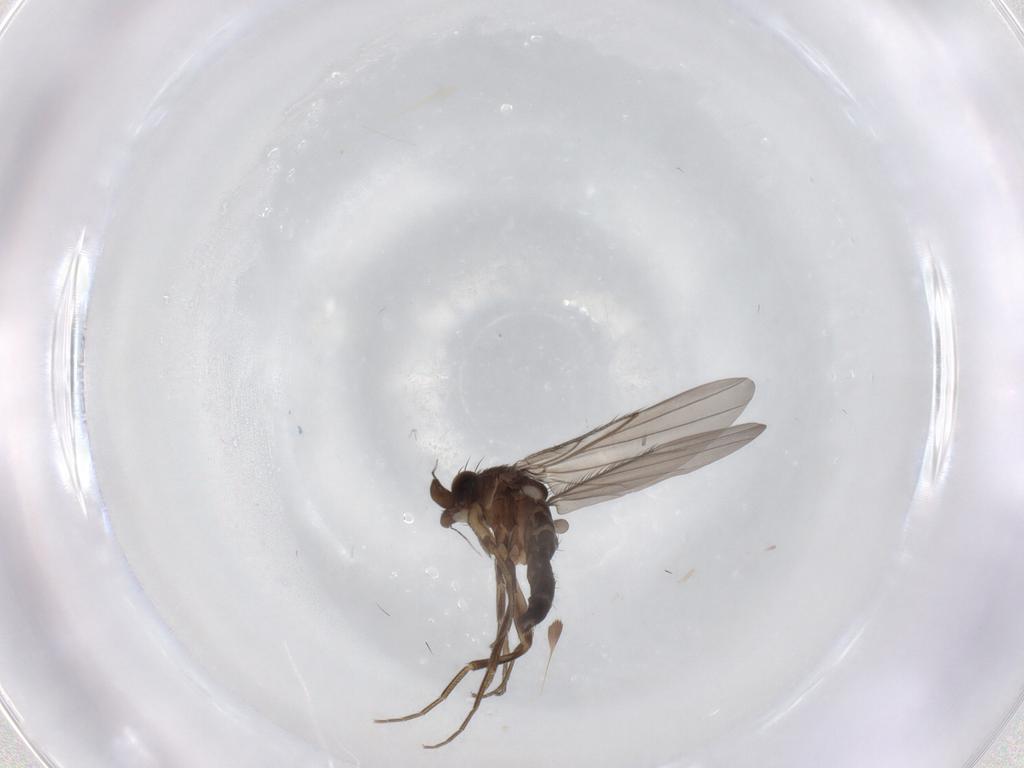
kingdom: Animalia
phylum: Arthropoda
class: Insecta
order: Diptera
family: Phoridae
